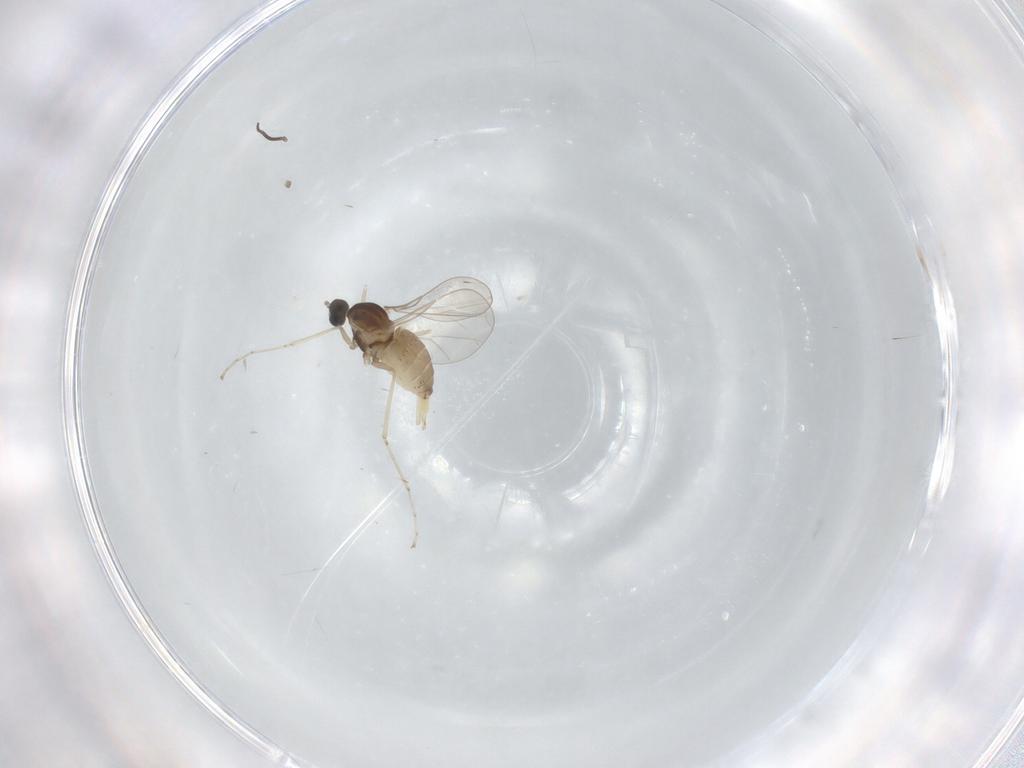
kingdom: Animalia
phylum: Arthropoda
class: Insecta
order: Diptera
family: Cecidomyiidae
